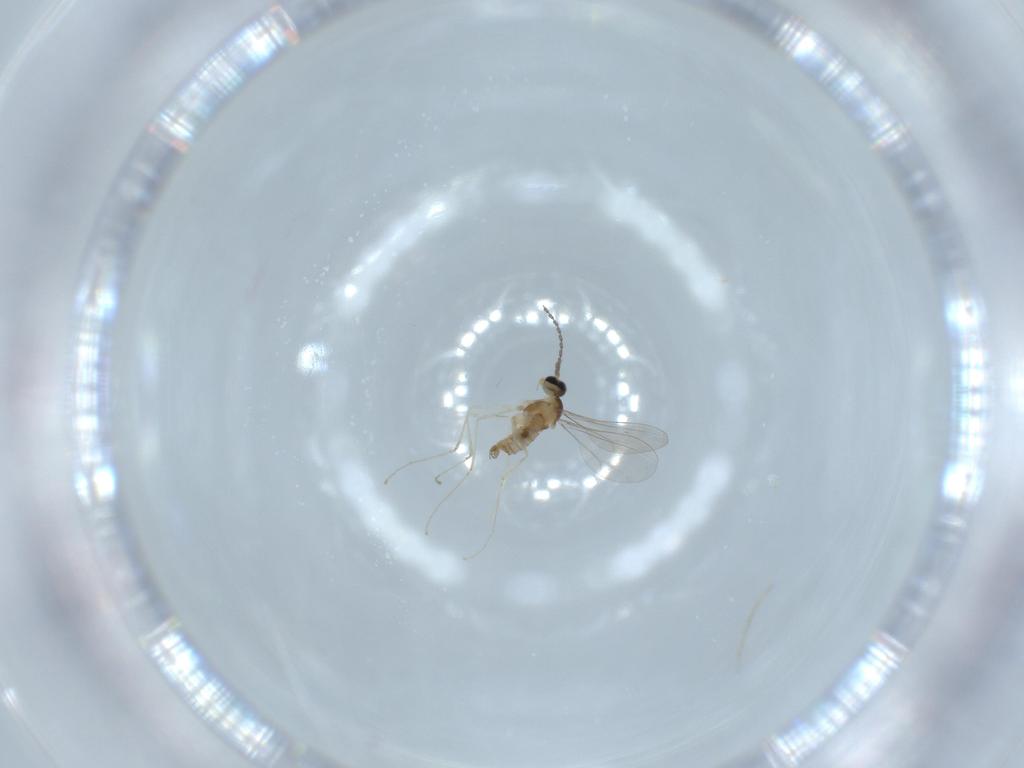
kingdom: Animalia
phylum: Arthropoda
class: Insecta
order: Diptera
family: Cecidomyiidae
